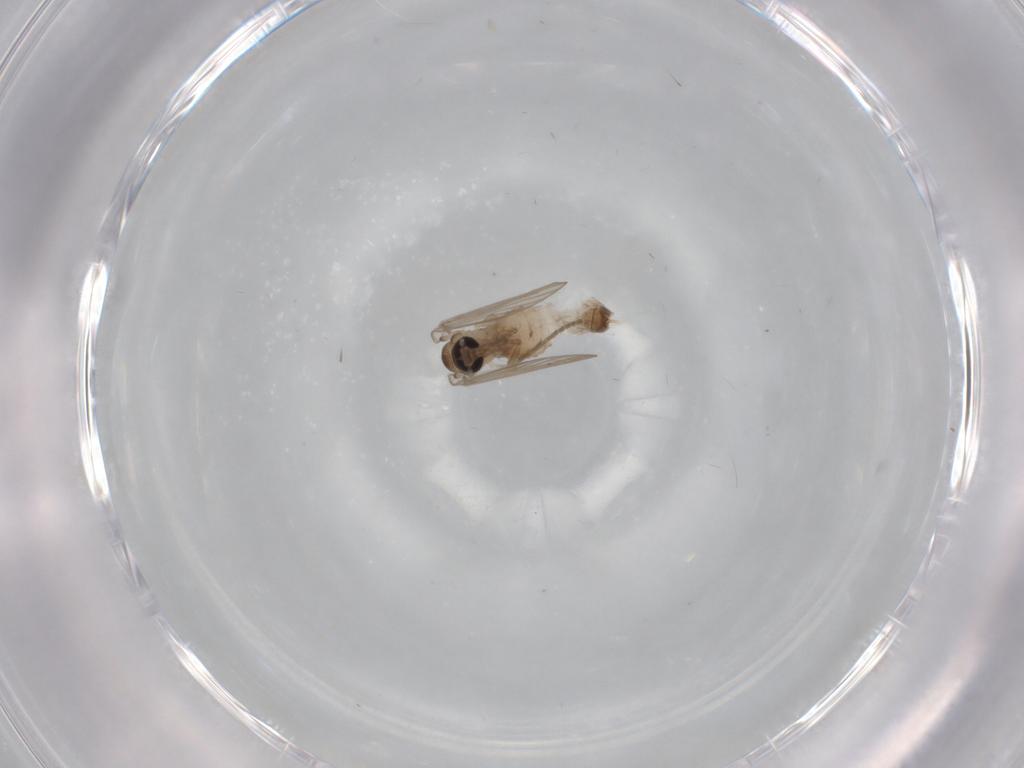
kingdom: Animalia
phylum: Arthropoda
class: Insecta
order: Diptera
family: Psychodidae
